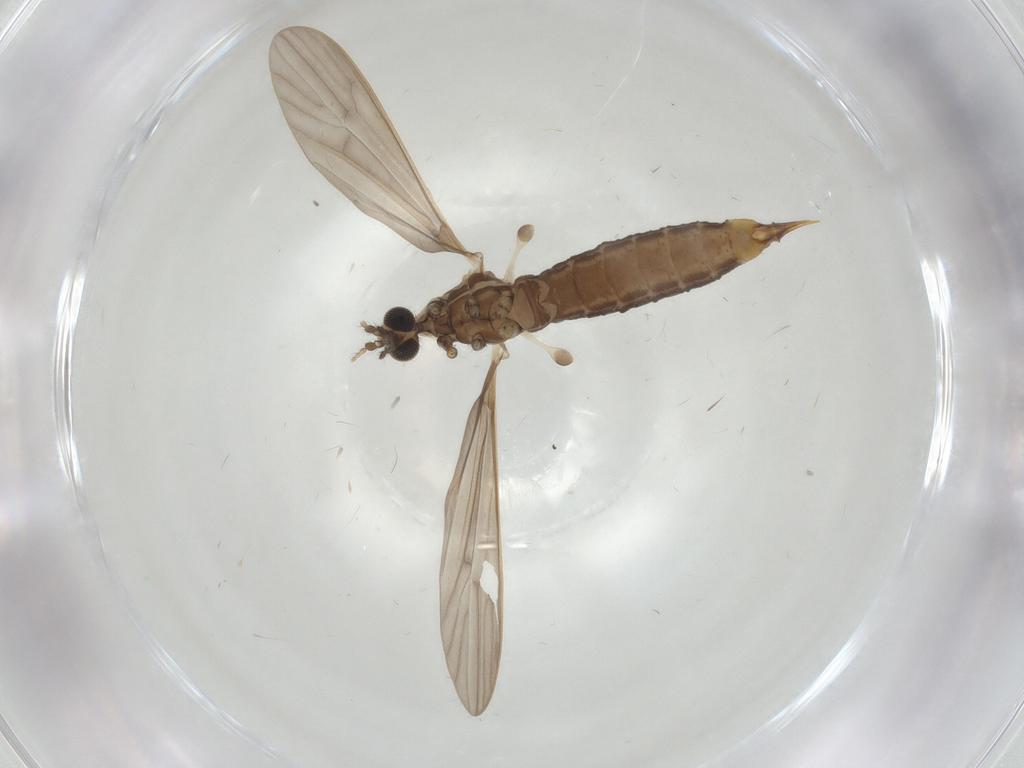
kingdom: Animalia
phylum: Arthropoda
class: Insecta
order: Diptera
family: Limoniidae
